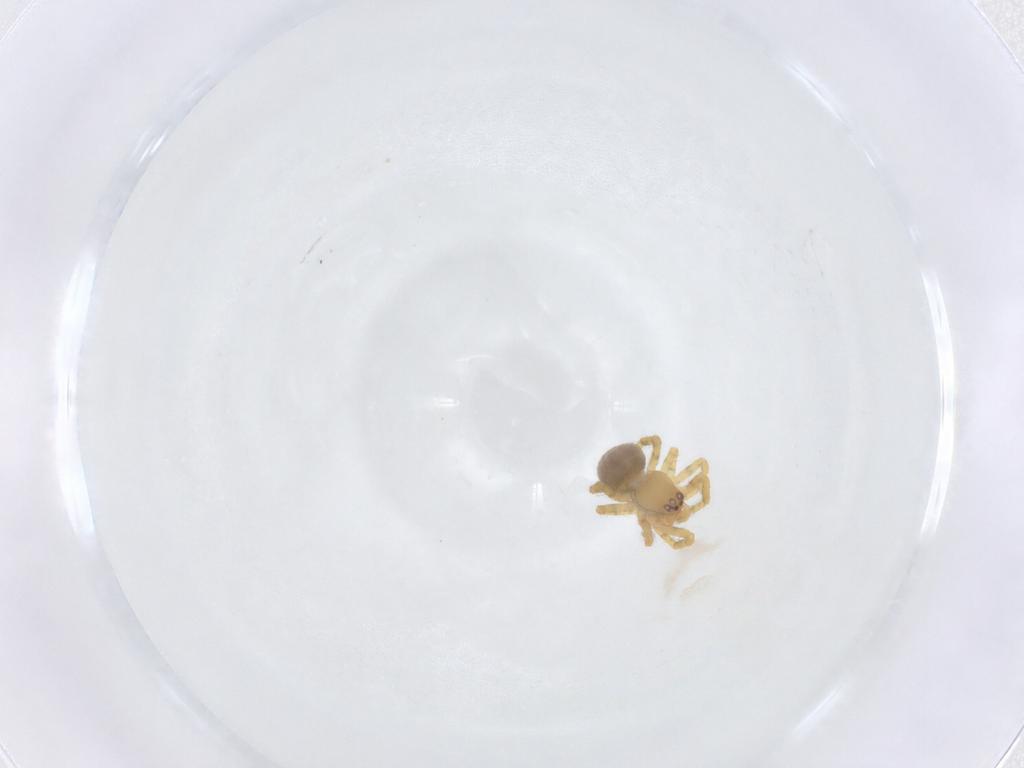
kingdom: Animalia
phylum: Arthropoda
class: Arachnida
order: Araneae
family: Theridiidae
